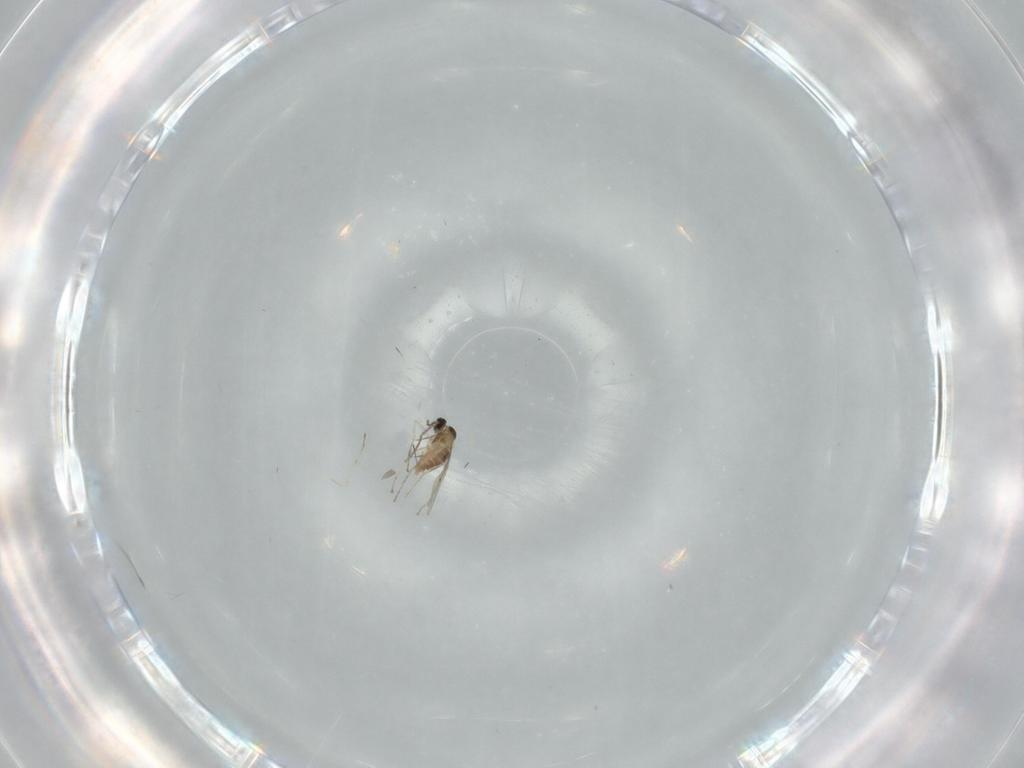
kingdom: Animalia
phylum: Arthropoda
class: Insecta
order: Diptera
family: Cecidomyiidae
